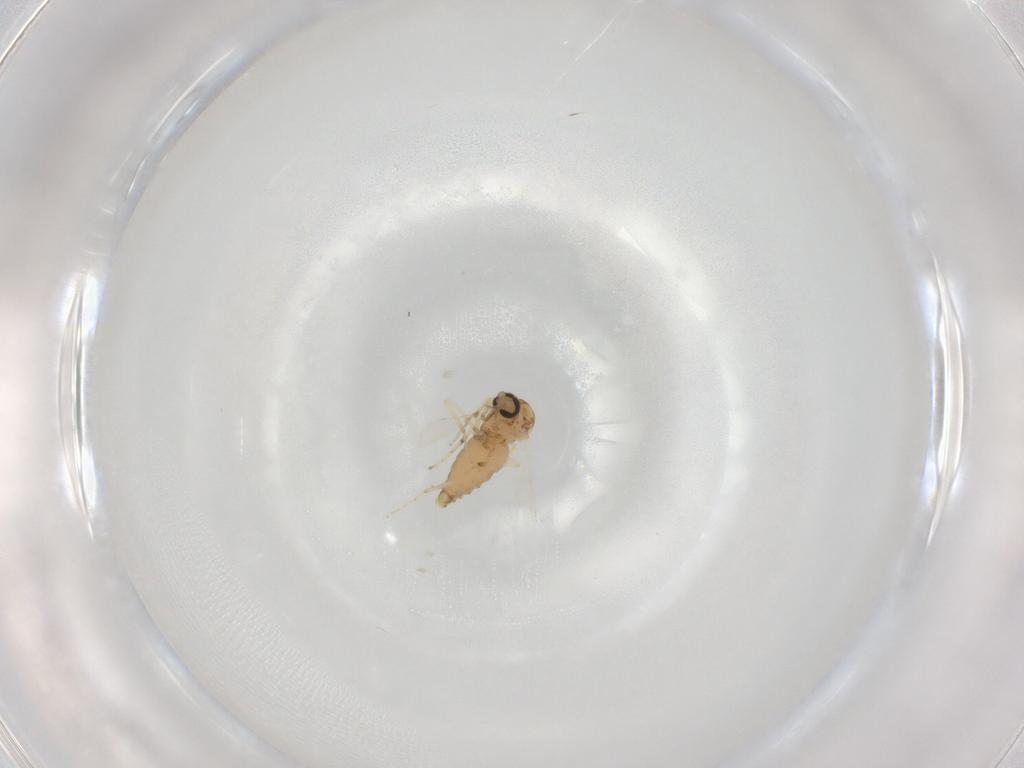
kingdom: Animalia
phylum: Arthropoda
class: Insecta
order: Diptera
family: Ceratopogonidae
